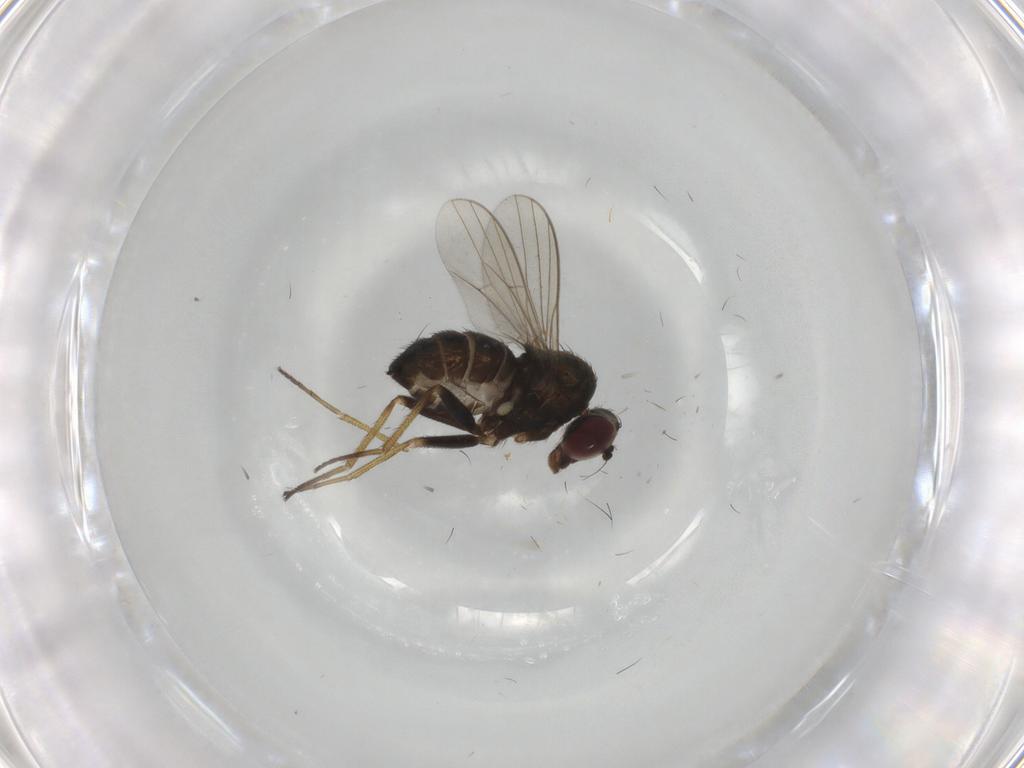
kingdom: Animalia
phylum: Arthropoda
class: Insecta
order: Diptera
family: Dolichopodidae
